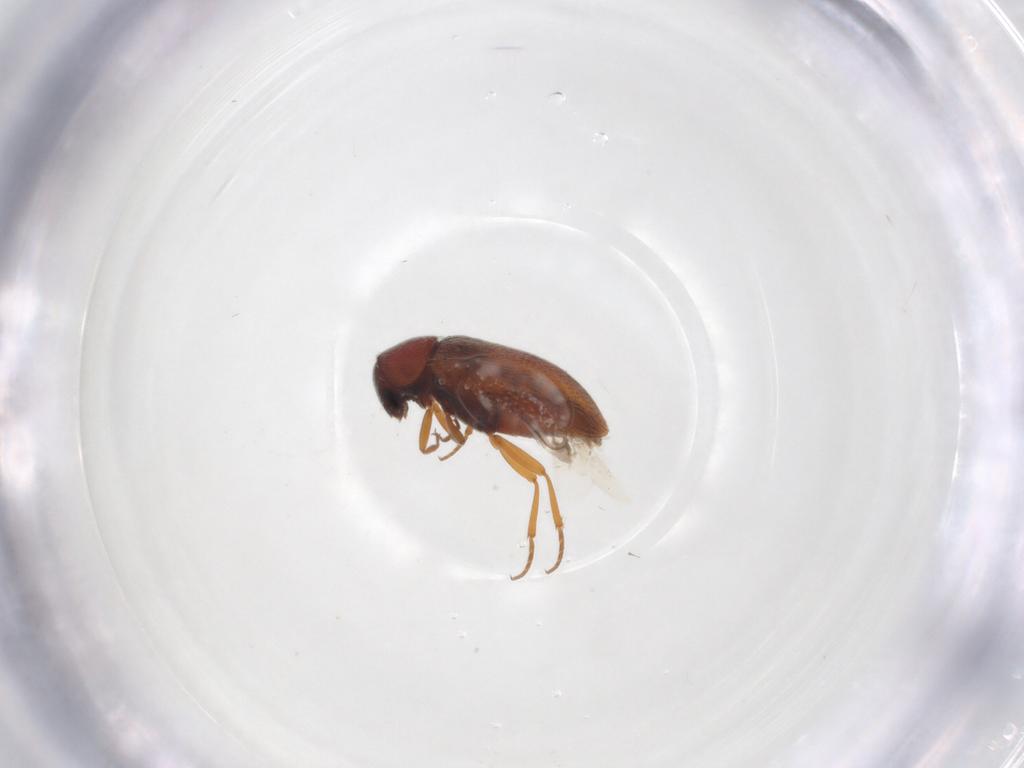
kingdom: Animalia
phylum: Arthropoda
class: Insecta
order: Coleoptera
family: Rhadalidae
